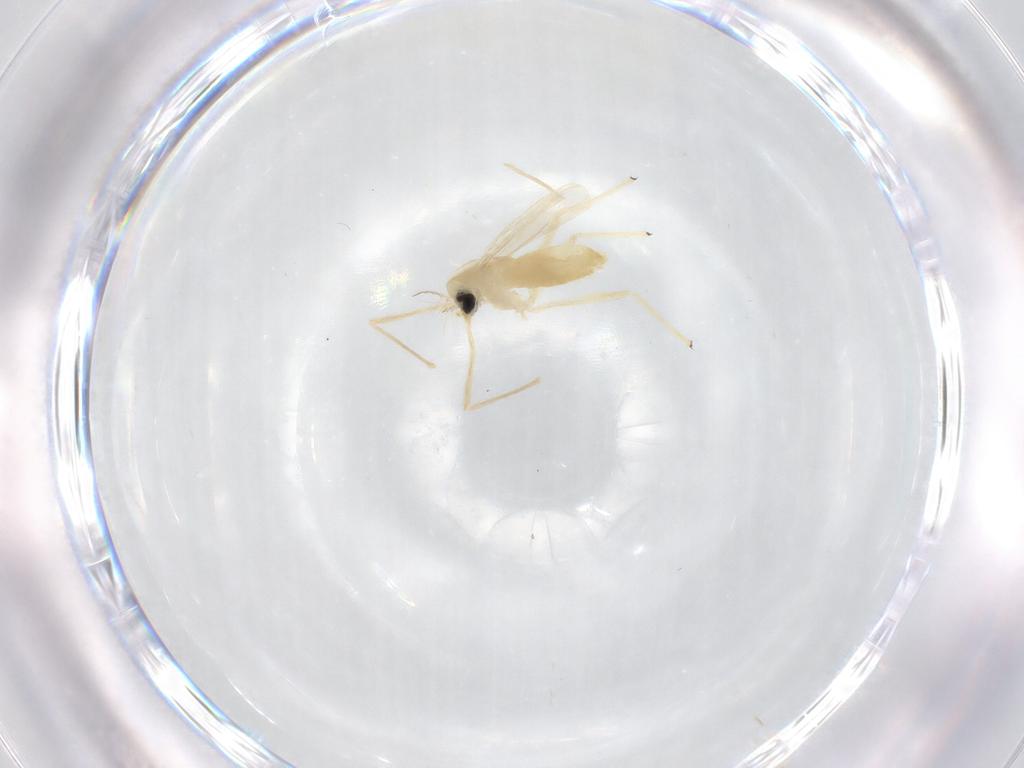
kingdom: Animalia
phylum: Arthropoda
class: Insecta
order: Diptera
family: Chironomidae
